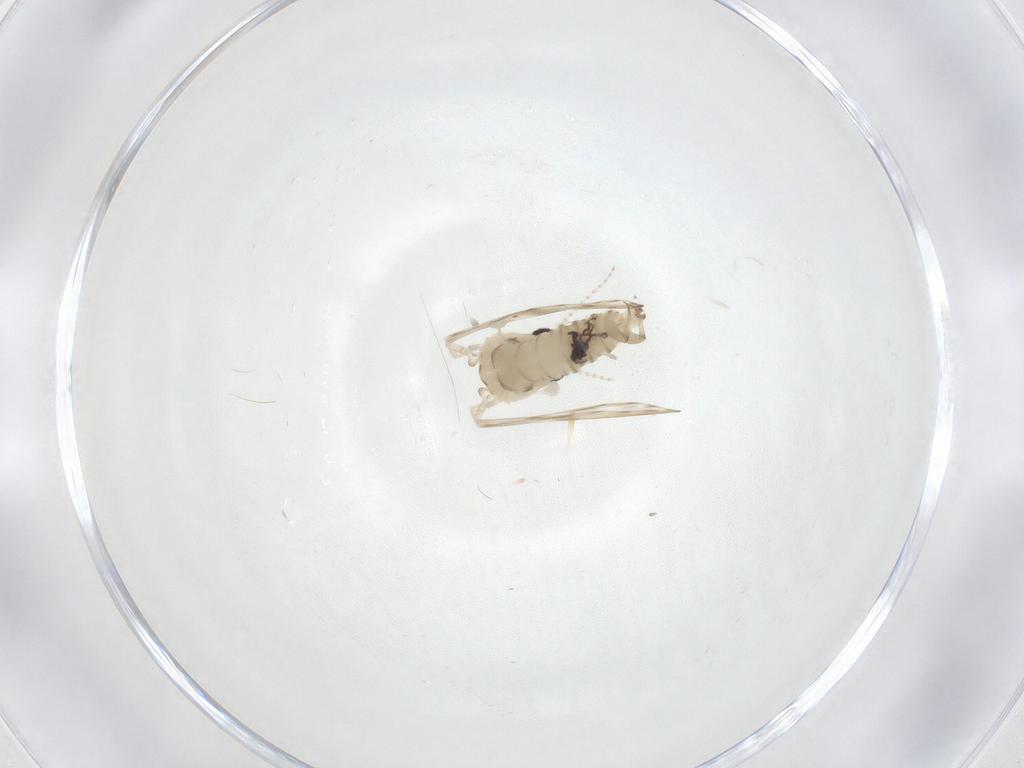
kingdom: Animalia
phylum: Arthropoda
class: Insecta
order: Diptera
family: Psychodidae
